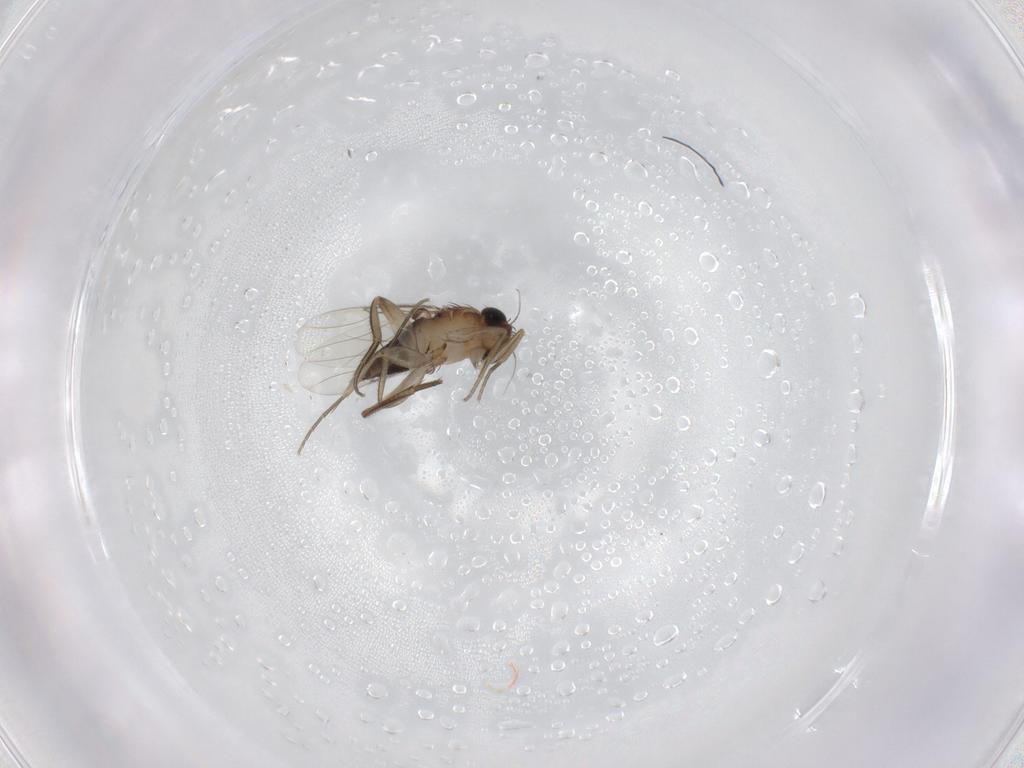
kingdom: Animalia
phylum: Arthropoda
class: Insecta
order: Diptera
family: Phoridae
